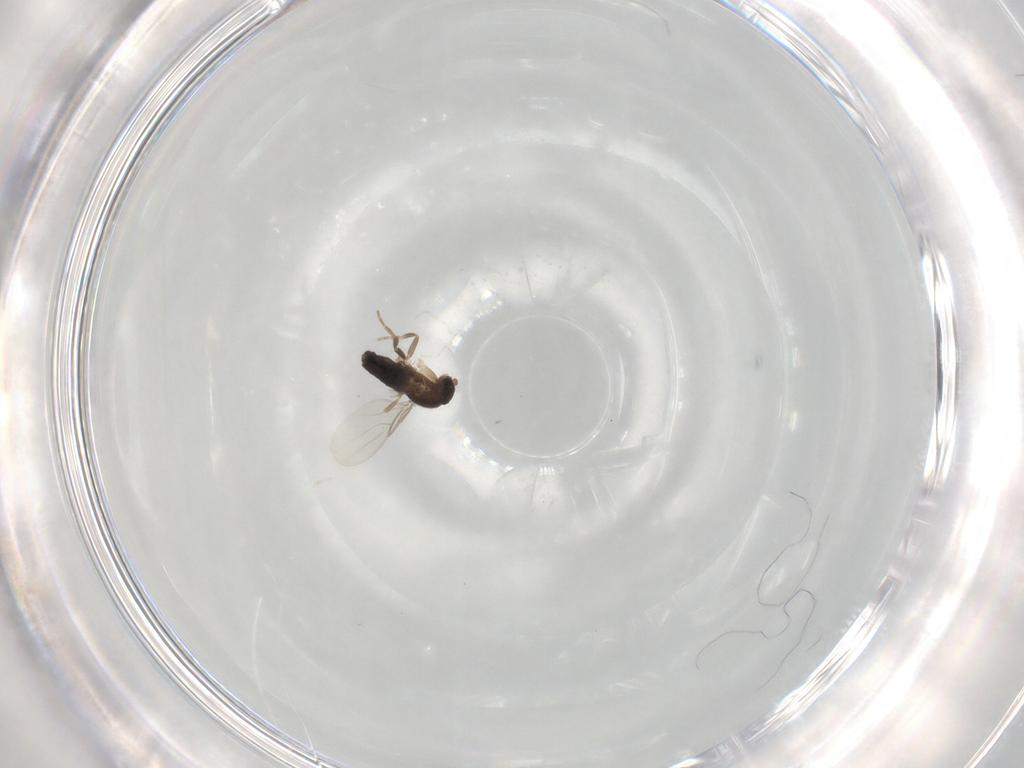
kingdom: Animalia
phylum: Arthropoda
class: Insecta
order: Diptera
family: Phoridae
